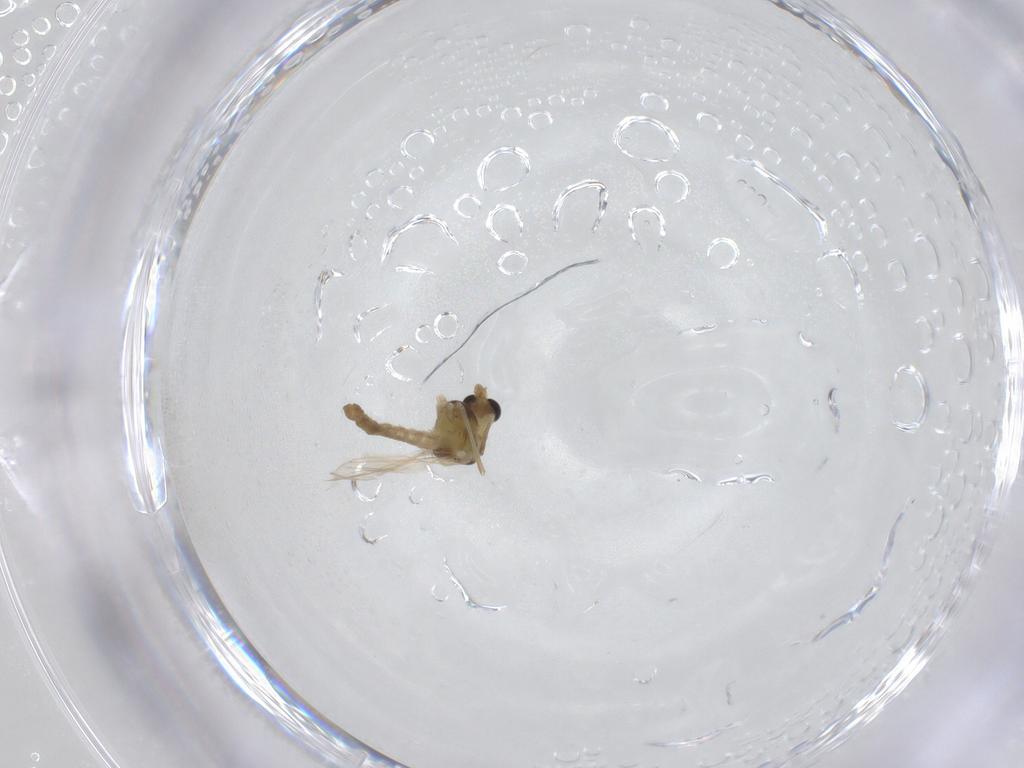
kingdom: Animalia
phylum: Arthropoda
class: Insecta
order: Diptera
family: Chironomidae
